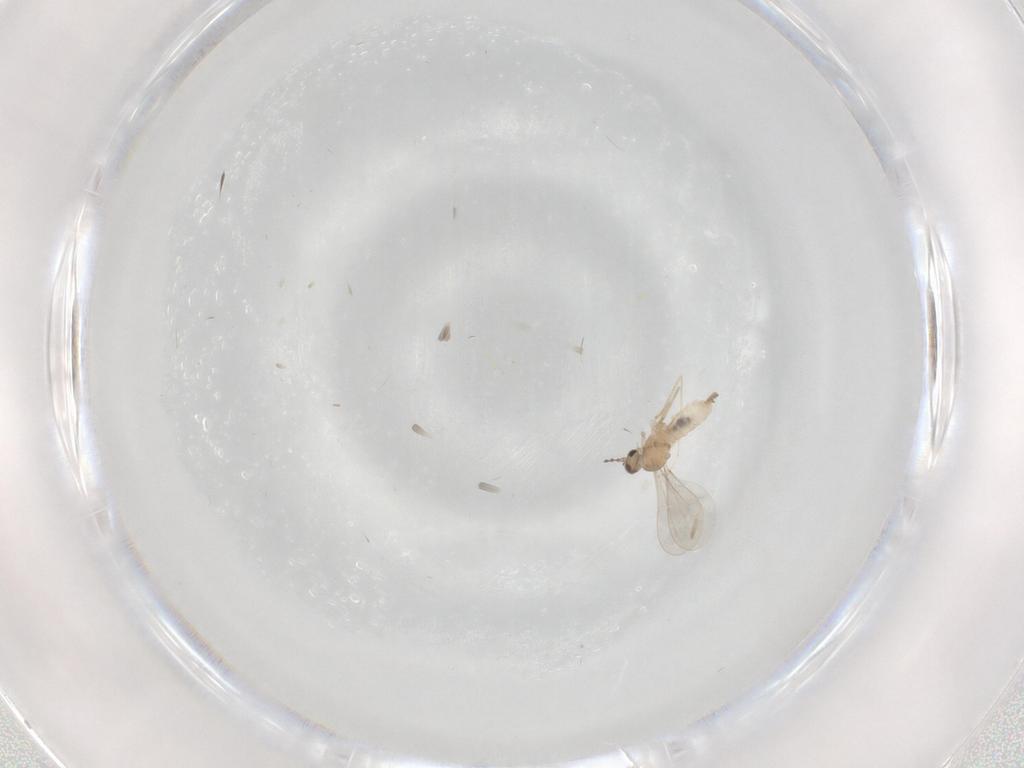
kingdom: Animalia
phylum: Arthropoda
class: Insecta
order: Diptera
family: Cecidomyiidae
